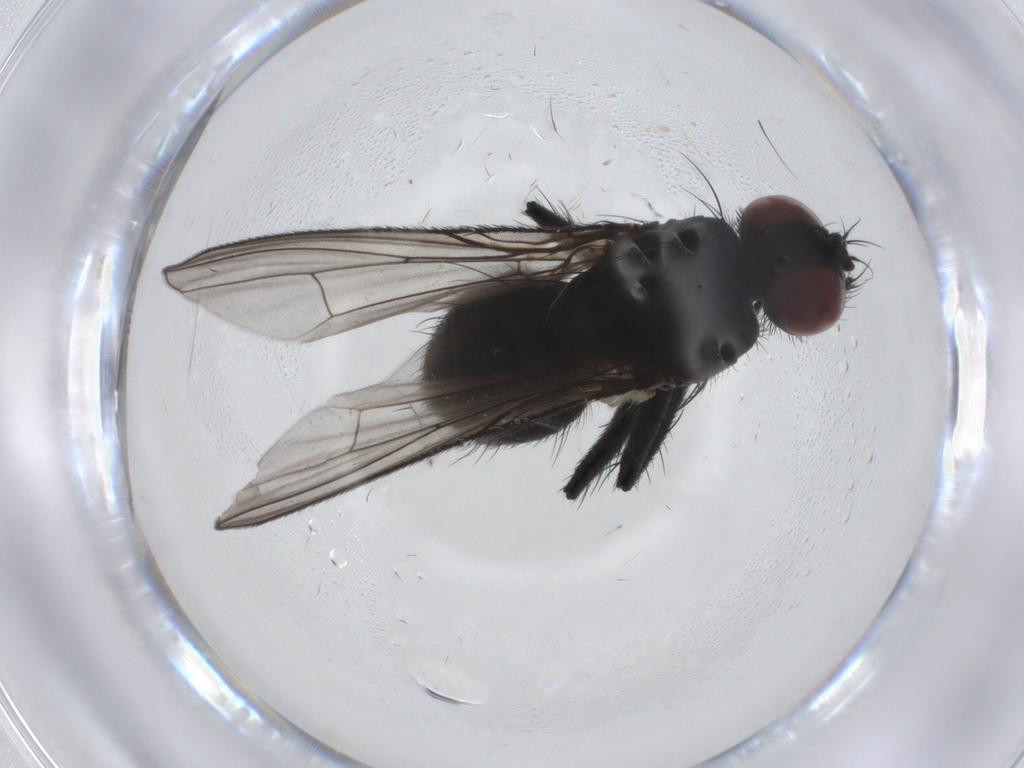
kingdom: Animalia
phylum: Arthropoda
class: Insecta
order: Diptera
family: Muscidae
